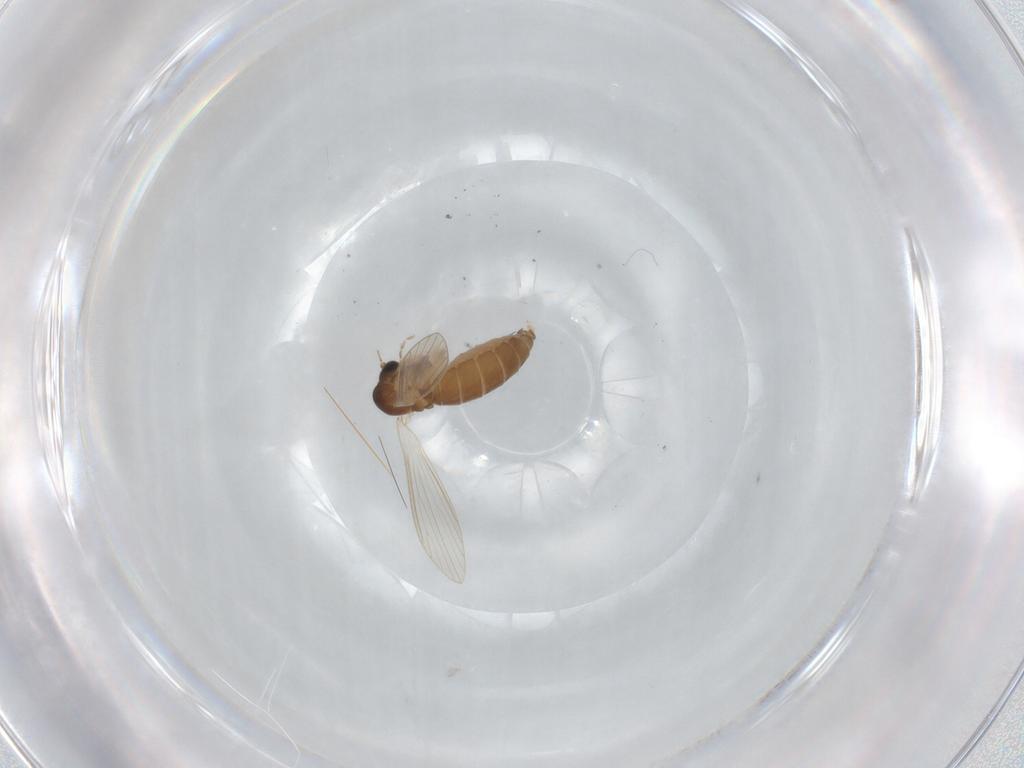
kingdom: Animalia
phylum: Arthropoda
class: Insecta
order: Diptera
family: Psychodidae
